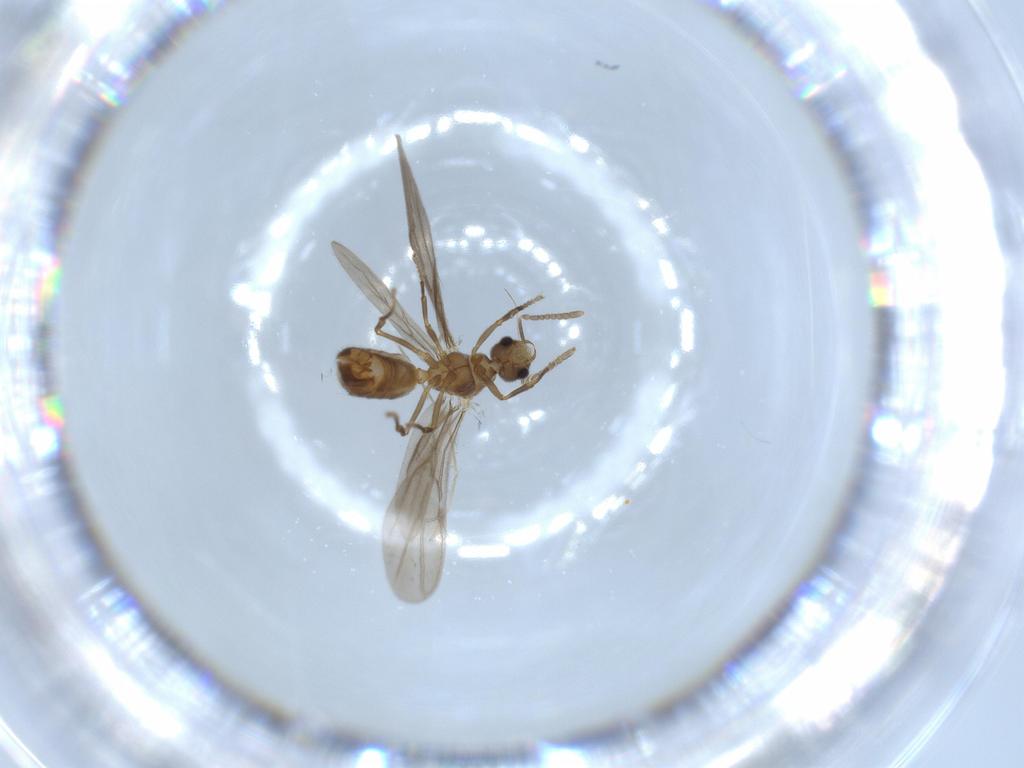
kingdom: Animalia
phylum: Arthropoda
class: Insecta
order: Hymenoptera
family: Formicidae
